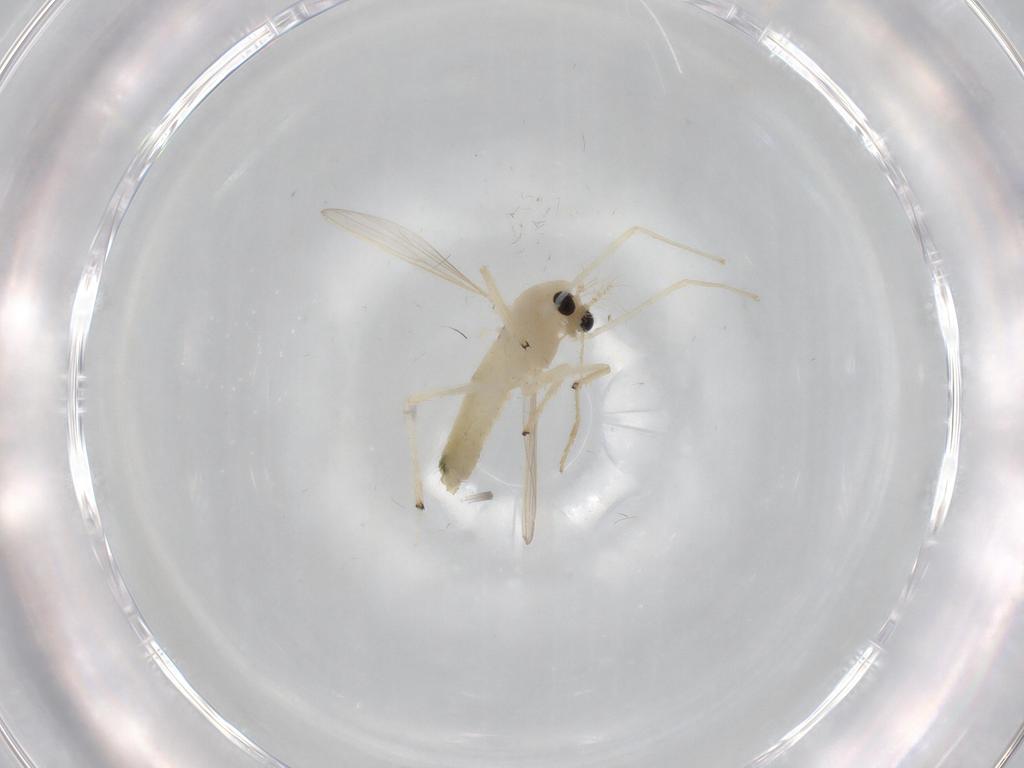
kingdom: Animalia
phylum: Arthropoda
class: Insecta
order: Diptera
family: Chironomidae
